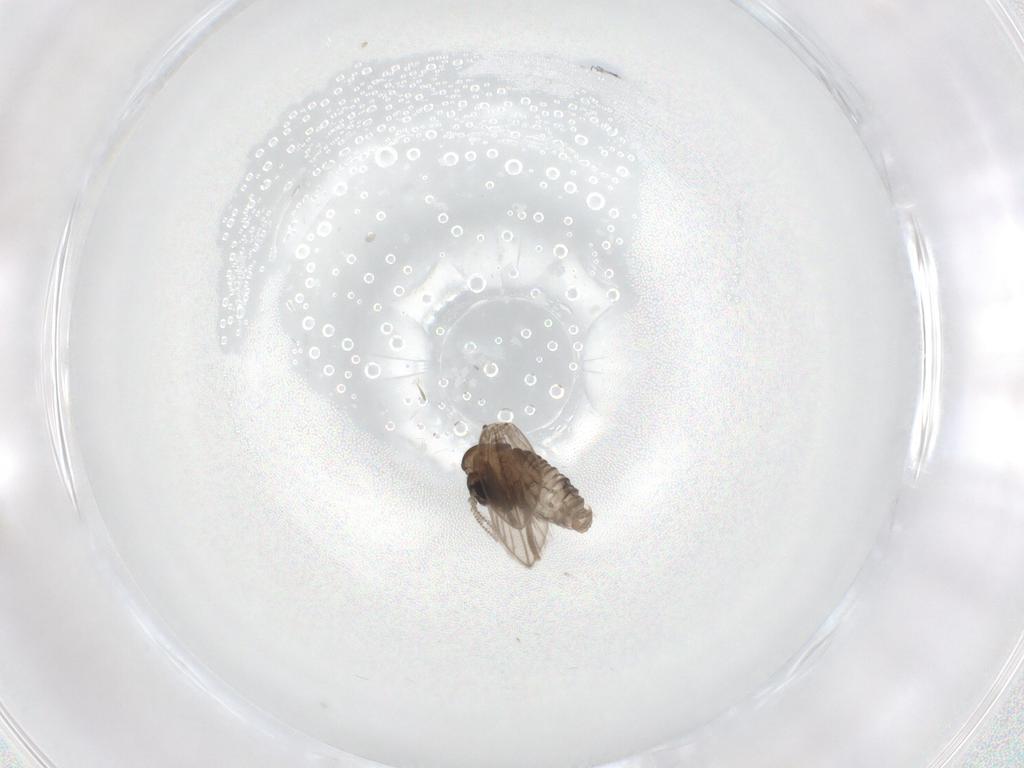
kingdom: Animalia
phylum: Arthropoda
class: Insecta
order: Diptera
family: Psychodidae
